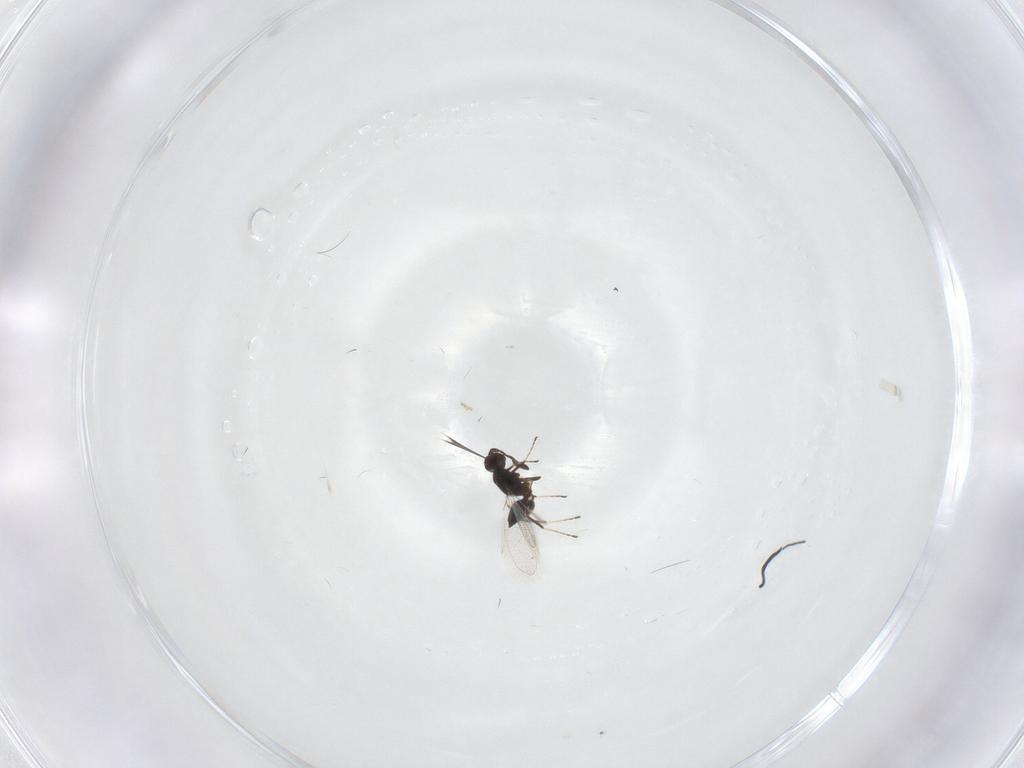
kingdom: Animalia
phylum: Arthropoda
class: Insecta
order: Hymenoptera
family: Mymaridae
